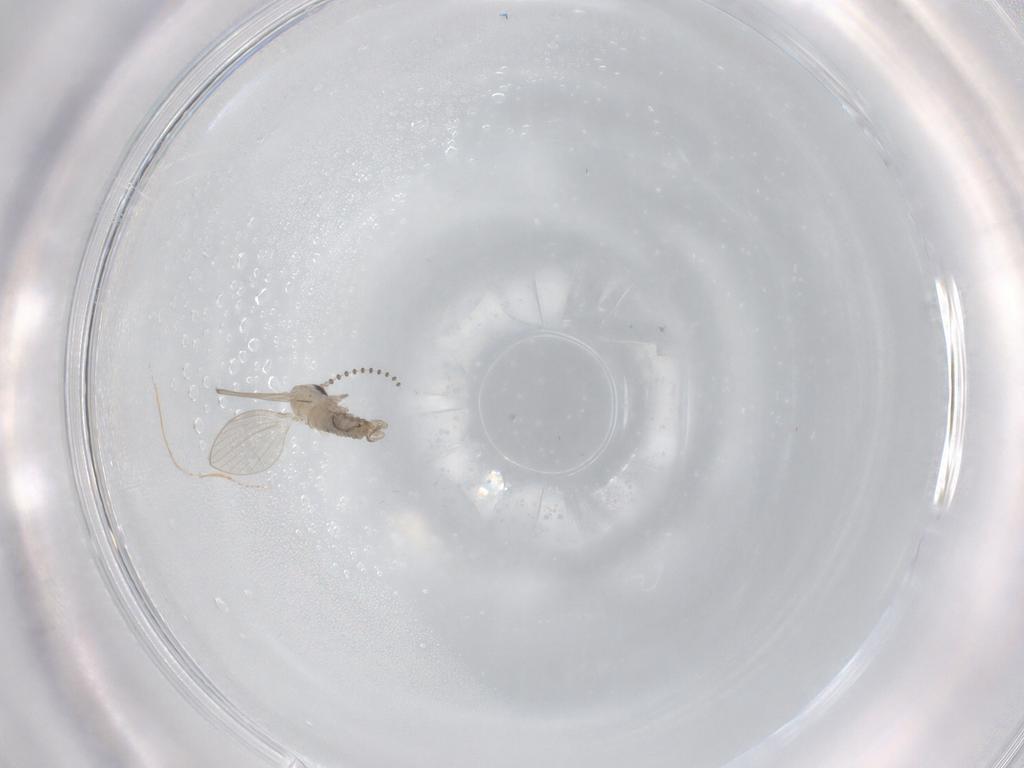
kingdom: Animalia
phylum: Arthropoda
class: Insecta
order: Diptera
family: Psychodidae
